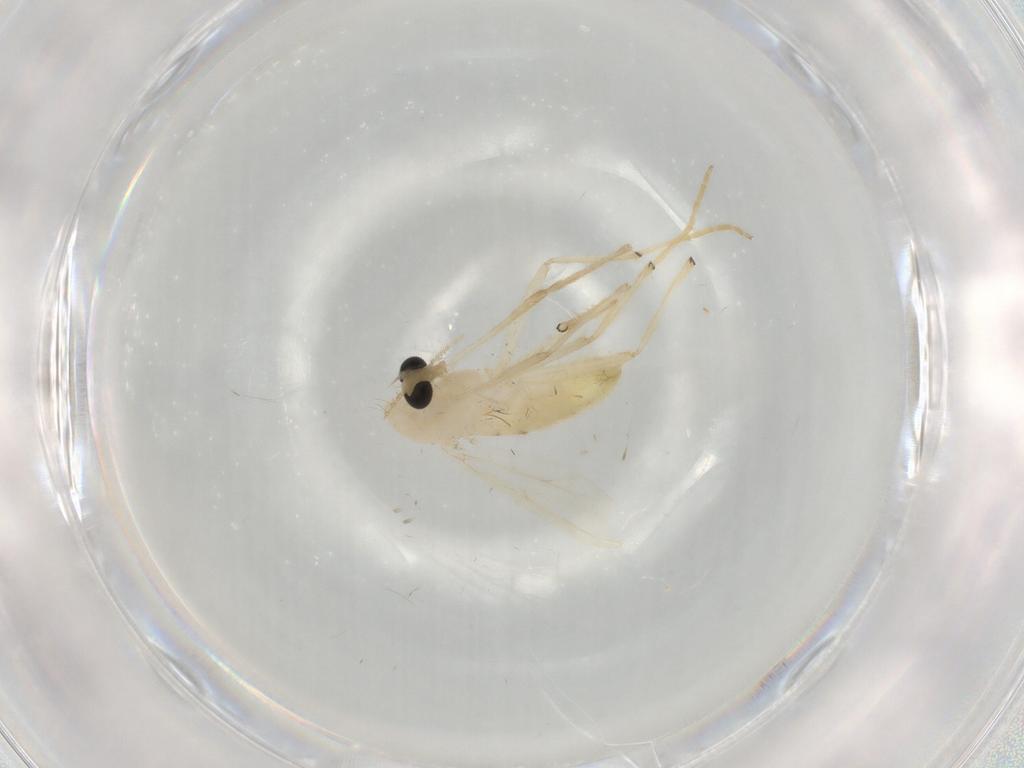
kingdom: Animalia
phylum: Arthropoda
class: Insecta
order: Diptera
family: Chironomidae
